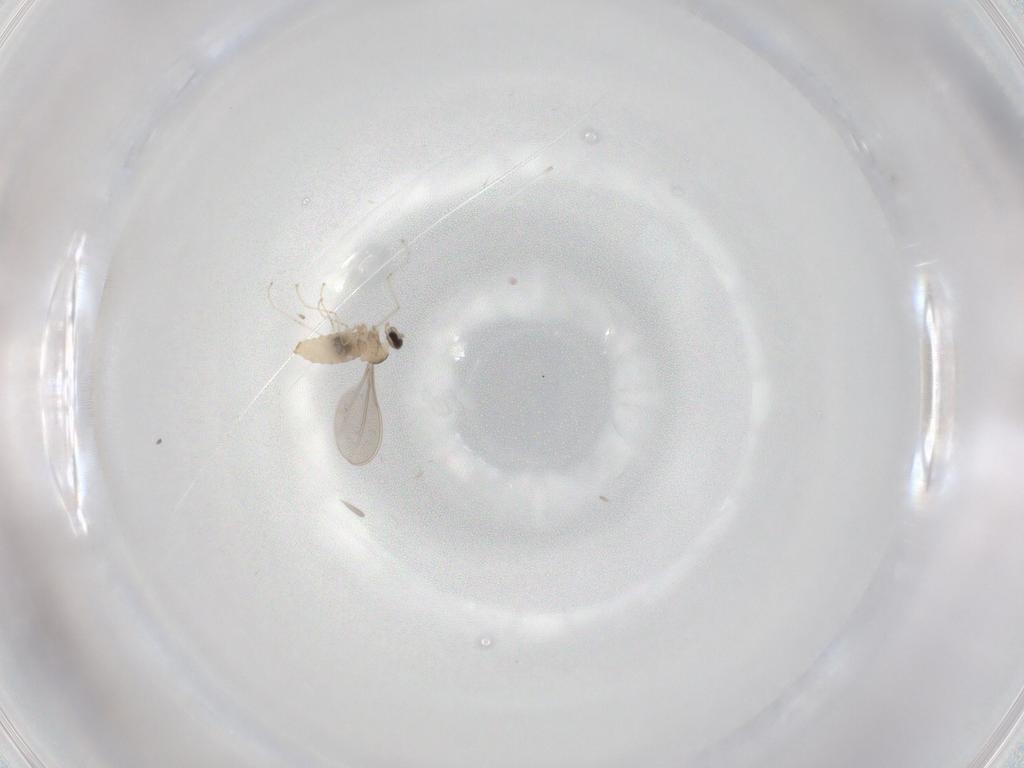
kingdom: Animalia
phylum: Arthropoda
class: Insecta
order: Diptera
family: Cecidomyiidae
